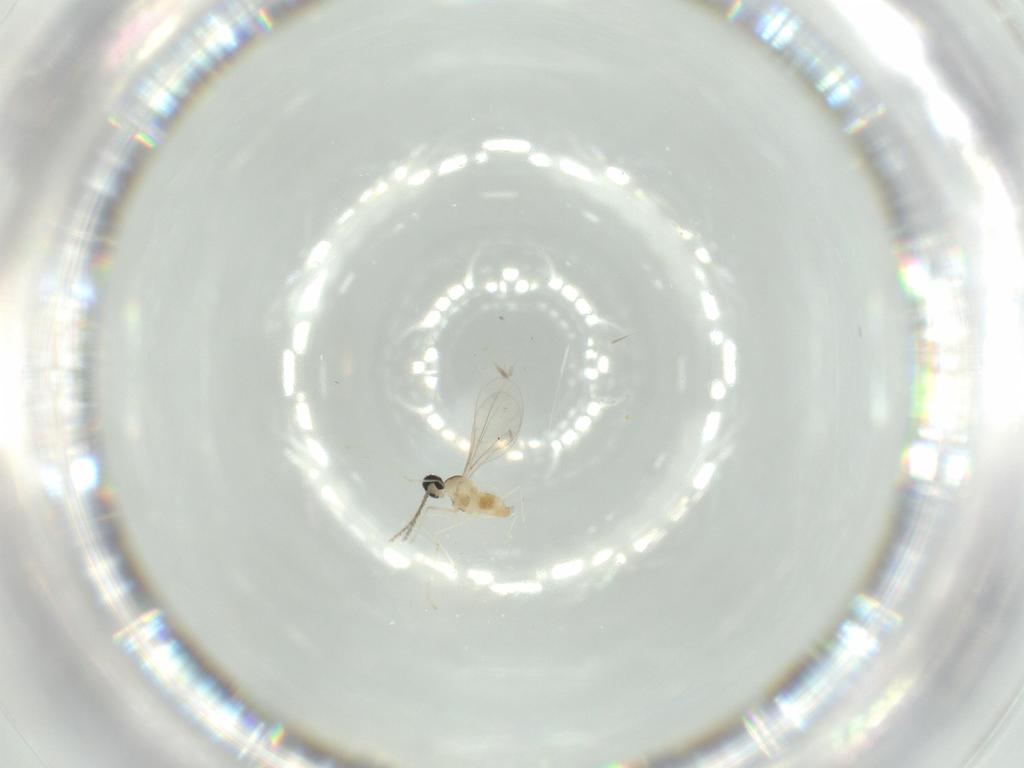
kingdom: Animalia
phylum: Arthropoda
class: Insecta
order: Diptera
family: Cecidomyiidae
